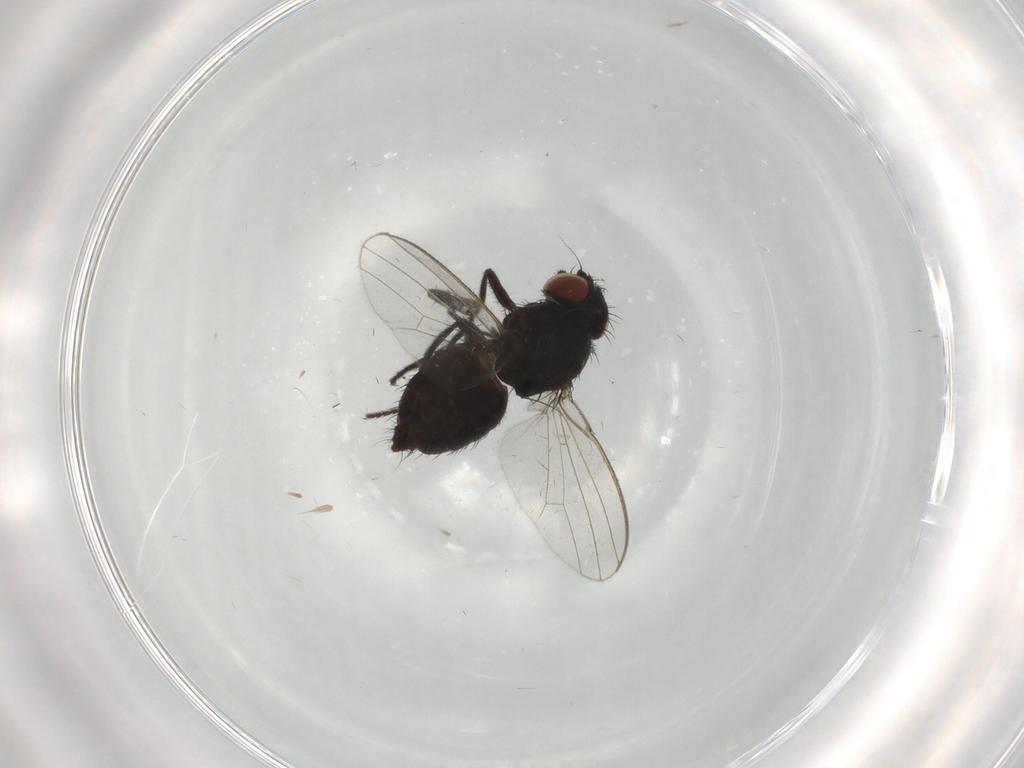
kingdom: Animalia
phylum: Arthropoda
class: Insecta
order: Diptera
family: Milichiidae
